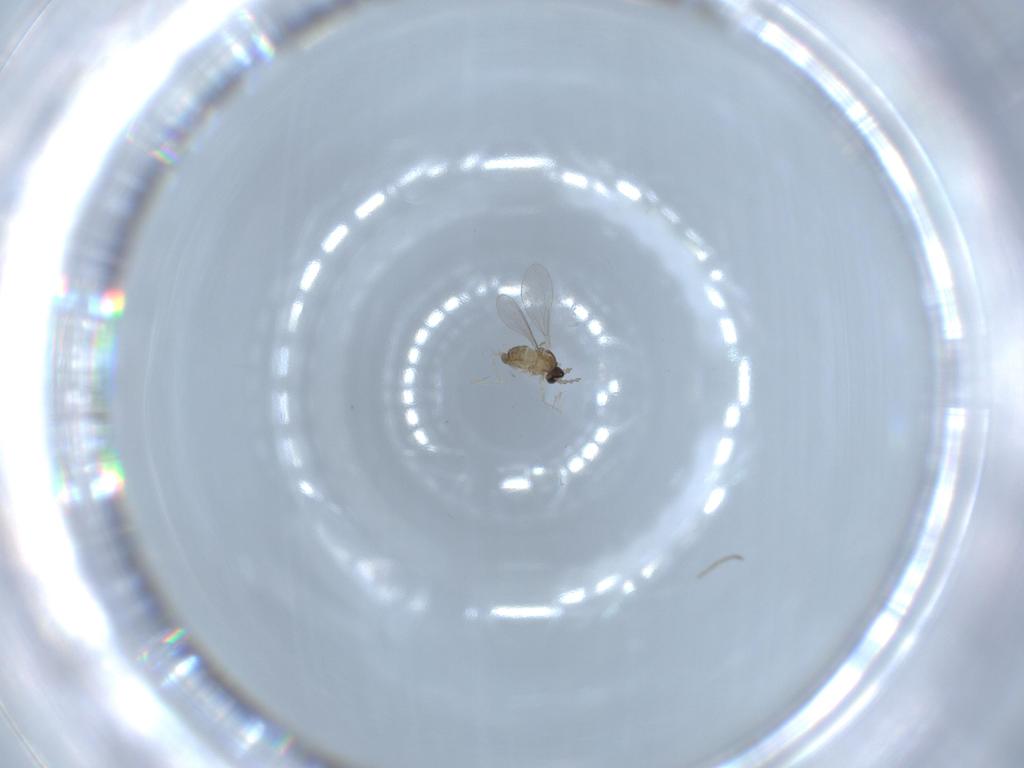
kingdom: Animalia
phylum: Arthropoda
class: Insecta
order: Diptera
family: Cecidomyiidae
